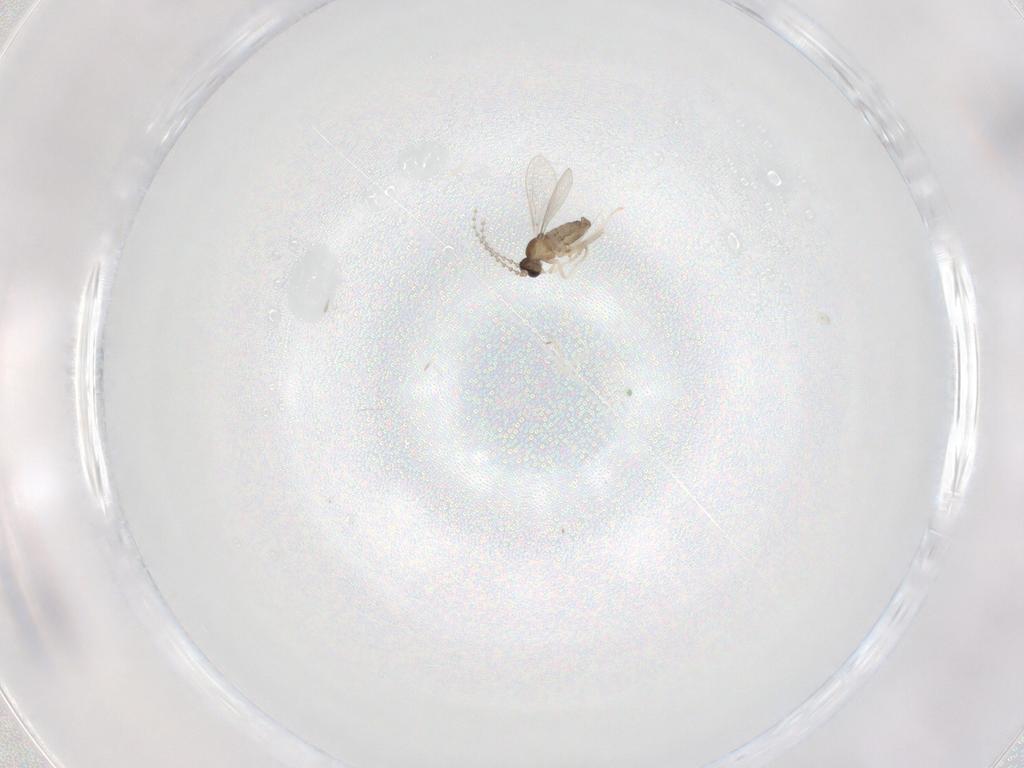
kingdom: Animalia
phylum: Arthropoda
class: Insecta
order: Diptera
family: Cecidomyiidae
